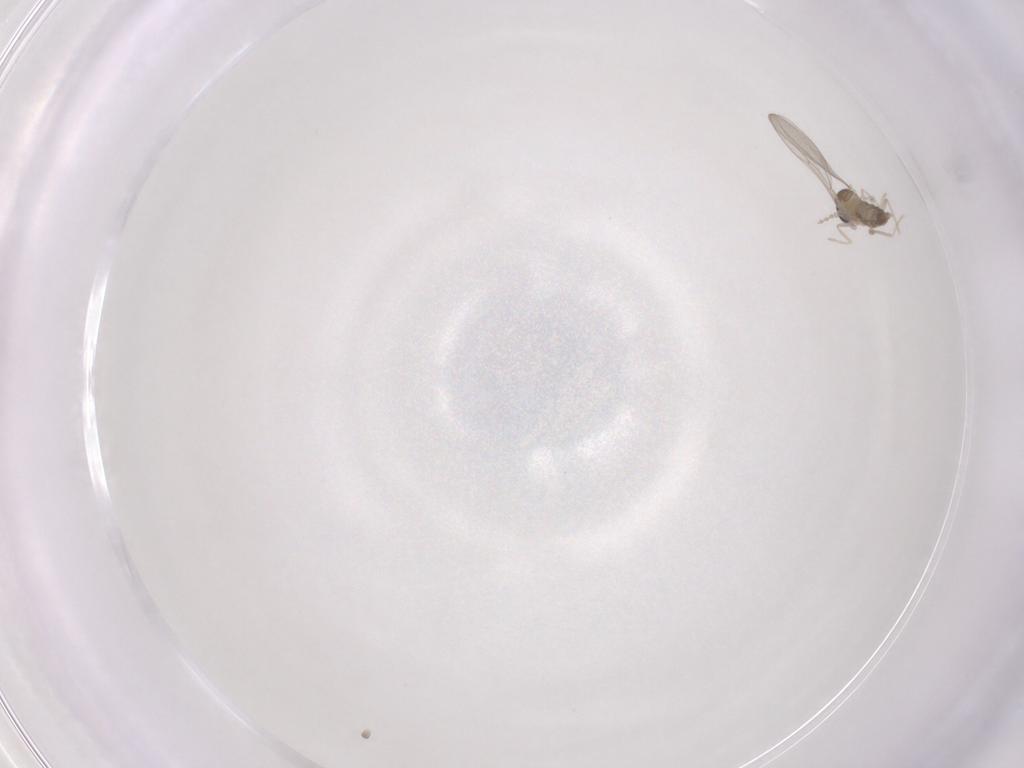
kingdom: Animalia
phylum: Arthropoda
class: Insecta
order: Diptera
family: Cecidomyiidae
